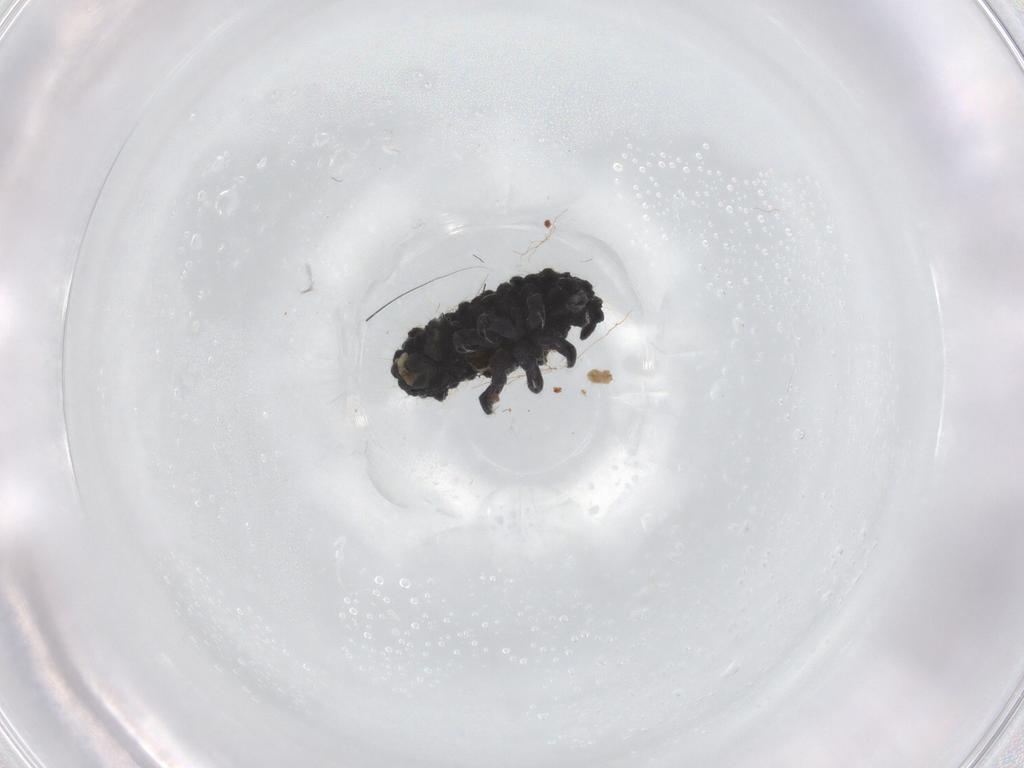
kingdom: Animalia
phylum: Arthropoda
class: Collembola
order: Poduromorpha
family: Neanuridae
